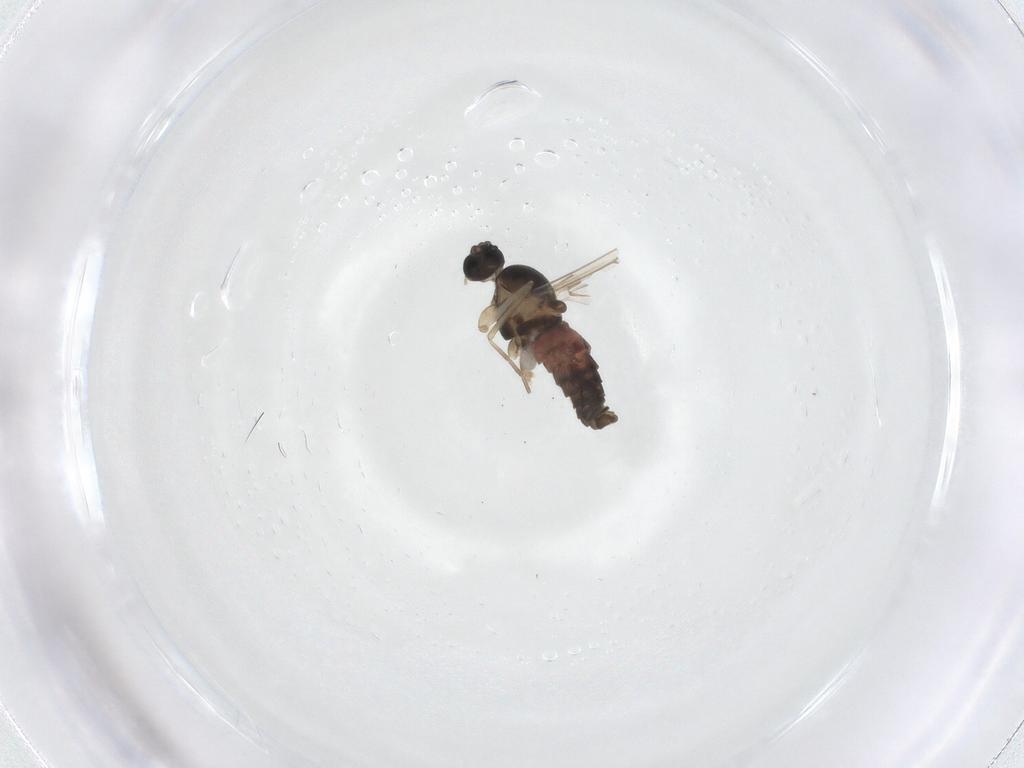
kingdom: Animalia
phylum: Arthropoda
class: Insecta
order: Diptera
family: Cecidomyiidae
